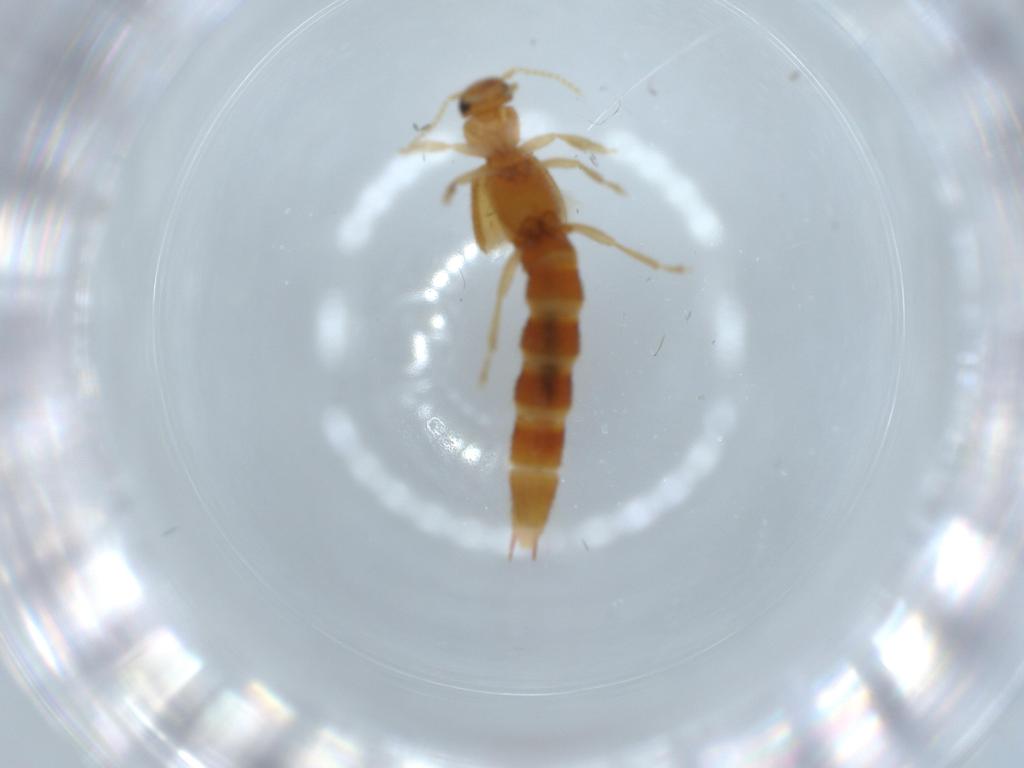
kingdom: Animalia
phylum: Arthropoda
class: Insecta
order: Coleoptera
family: Staphylinidae
